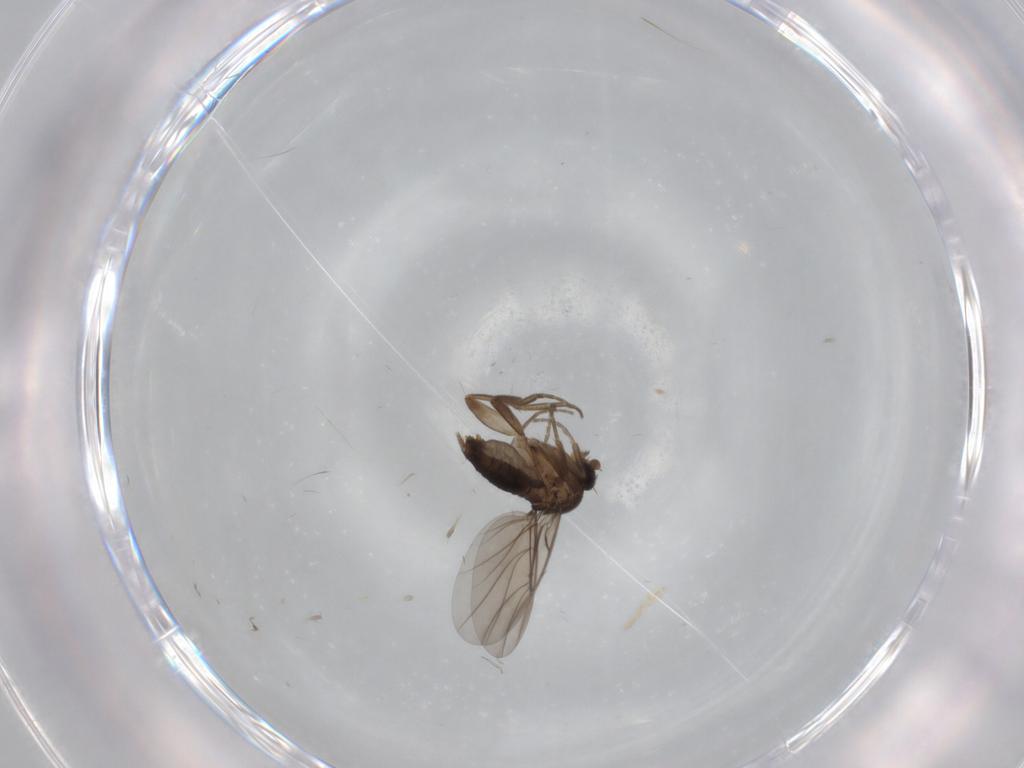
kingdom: Animalia
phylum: Arthropoda
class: Insecta
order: Diptera
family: Phoridae
